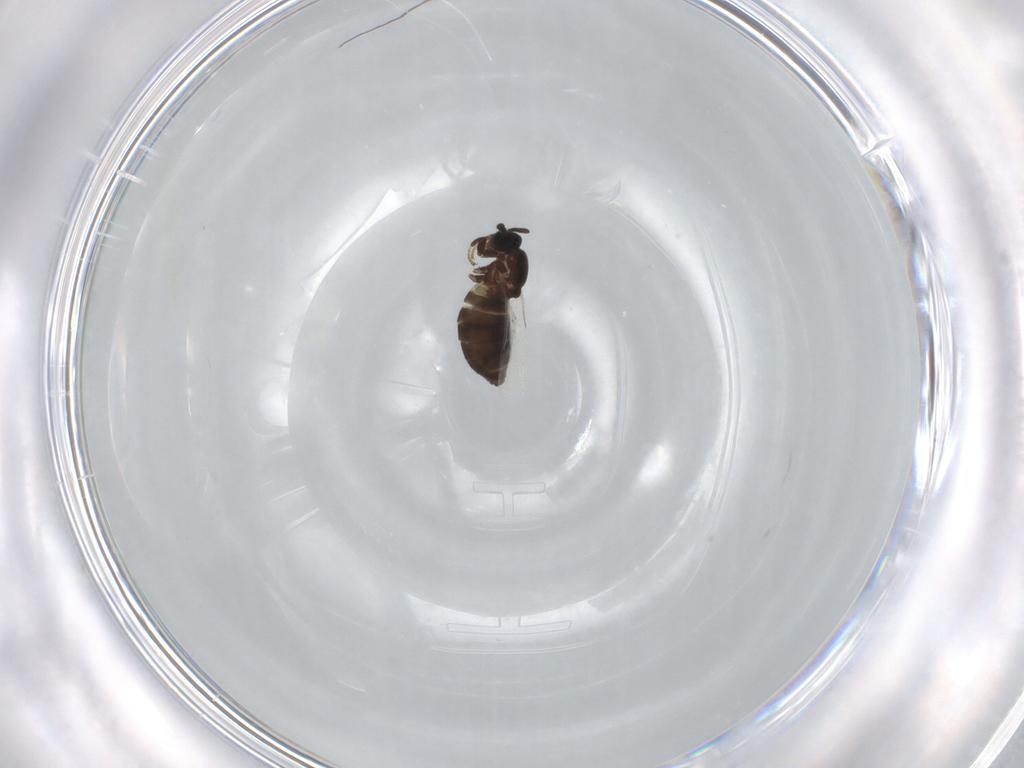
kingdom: Animalia
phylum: Arthropoda
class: Insecta
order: Diptera
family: Scatopsidae
